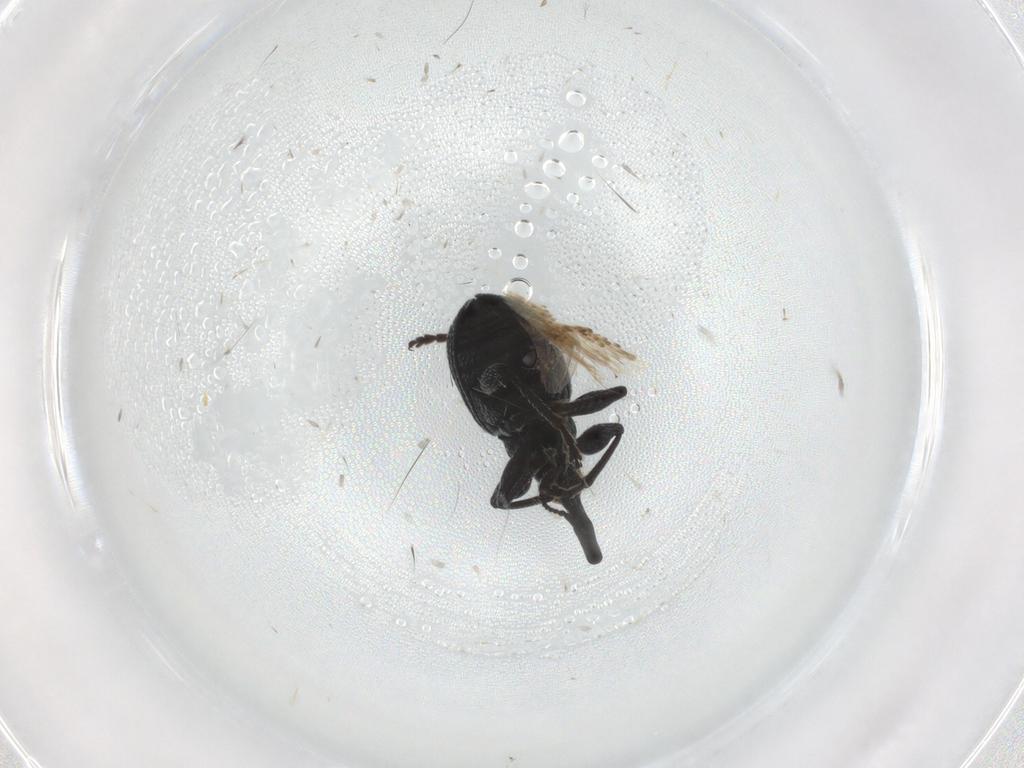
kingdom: Animalia
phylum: Arthropoda
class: Insecta
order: Coleoptera
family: Brentidae
